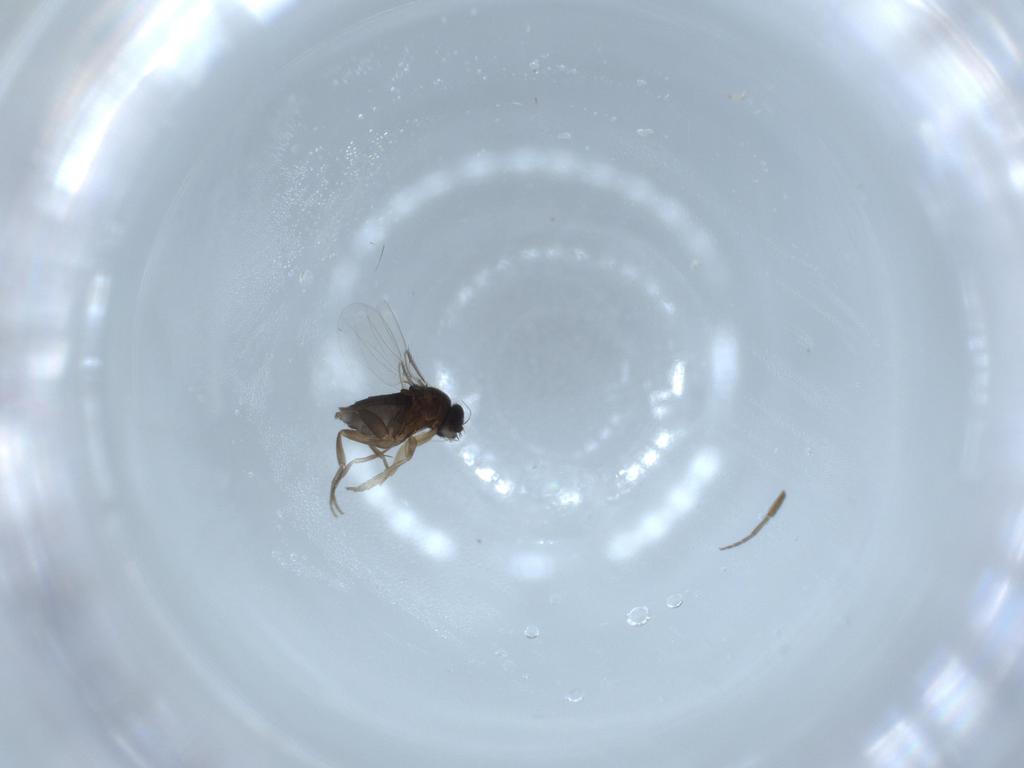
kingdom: Animalia
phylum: Arthropoda
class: Insecta
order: Diptera
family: Phoridae
